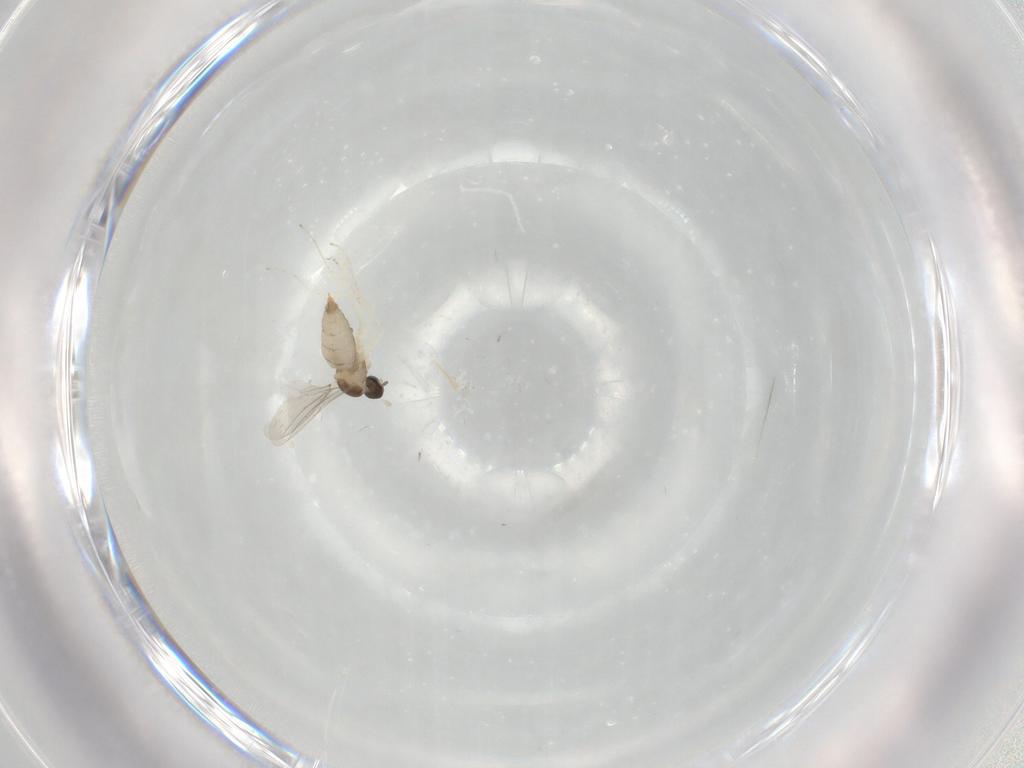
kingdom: Animalia
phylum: Arthropoda
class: Insecta
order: Diptera
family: Cecidomyiidae
